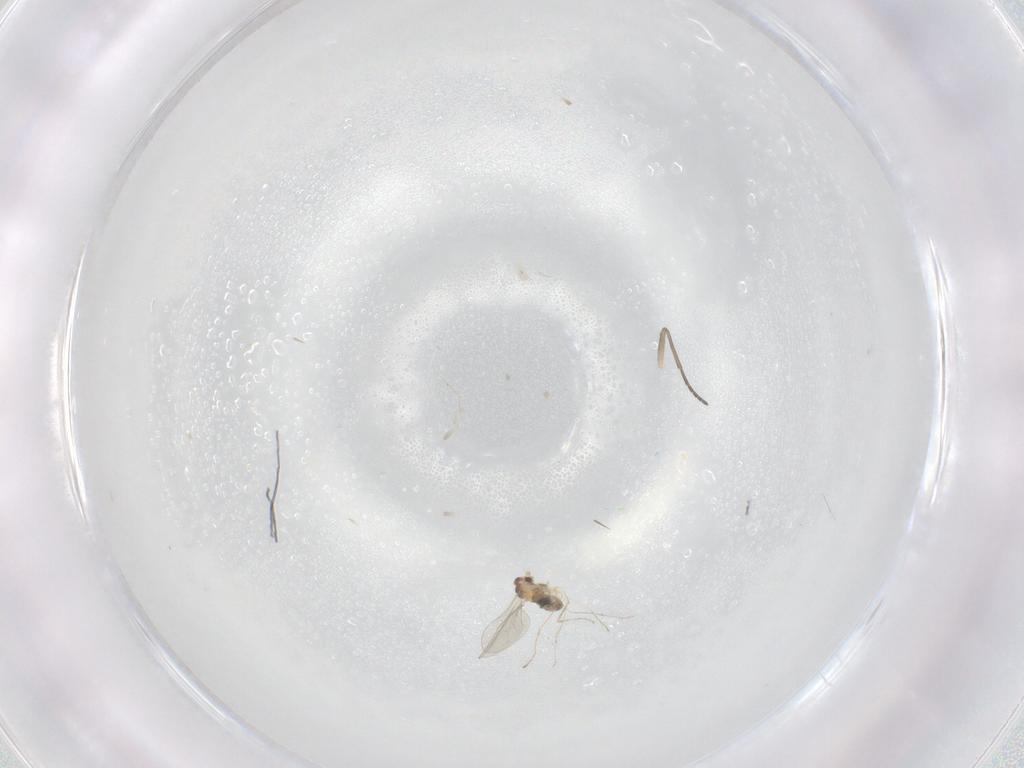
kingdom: Animalia
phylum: Arthropoda
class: Insecta
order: Diptera
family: Cecidomyiidae
